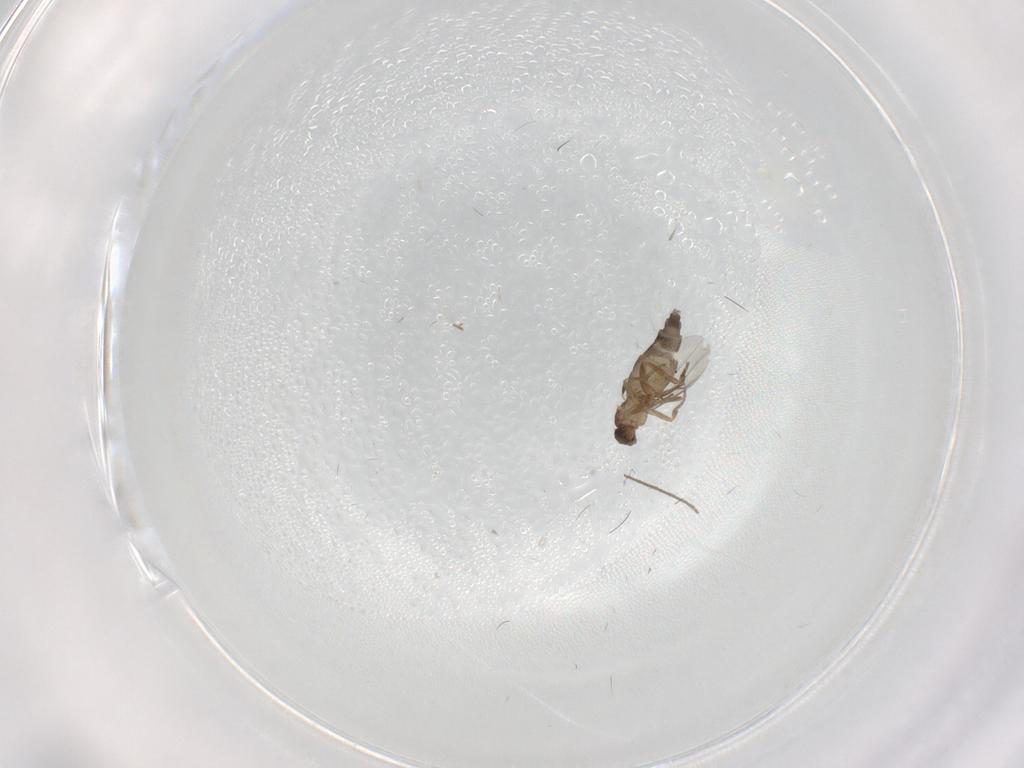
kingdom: Animalia
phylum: Arthropoda
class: Insecta
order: Diptera
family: Phoridae
